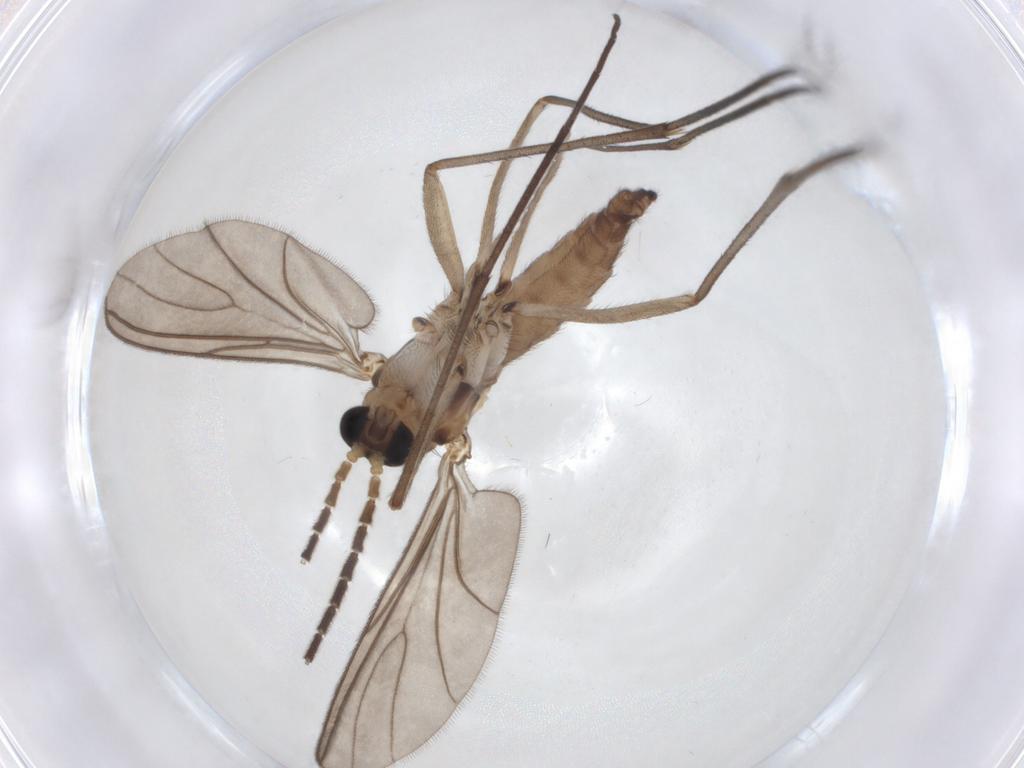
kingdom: Animalia
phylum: Arthropoda
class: Insecta
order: Diptera
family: Sciaridae
